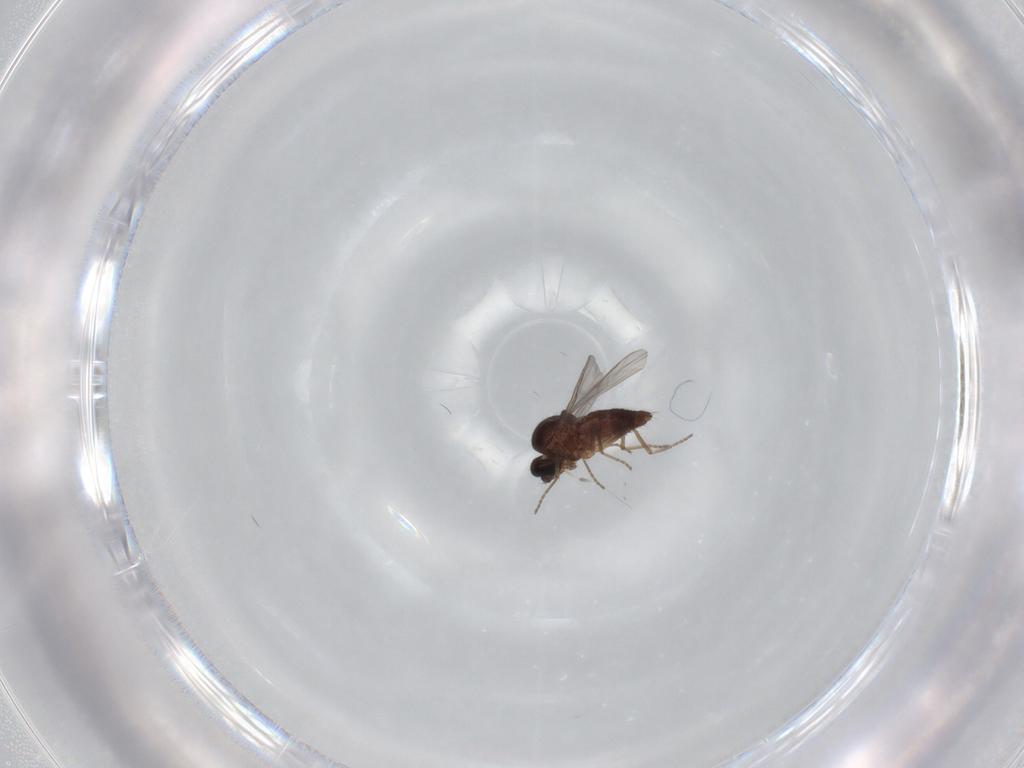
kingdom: Animalia
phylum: Arthropoda
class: Insecta
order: Diptera
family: Ceratopogonidae
